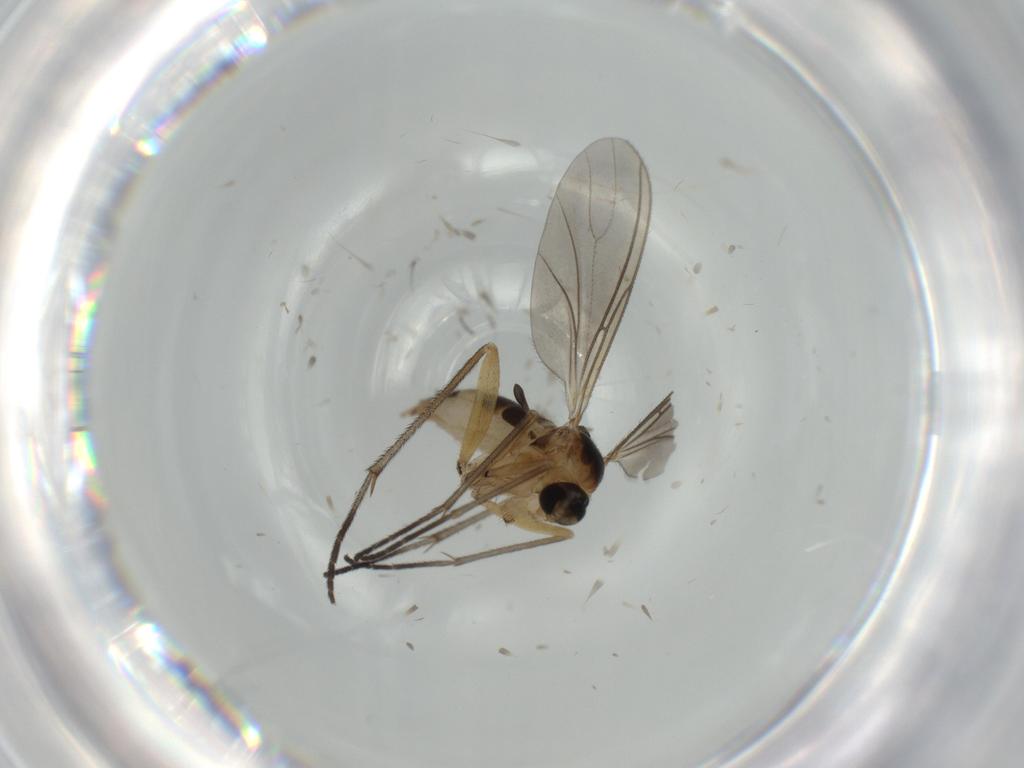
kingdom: Animalia
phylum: Arthropoda
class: Insecta
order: Diptera
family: Sciaridae
